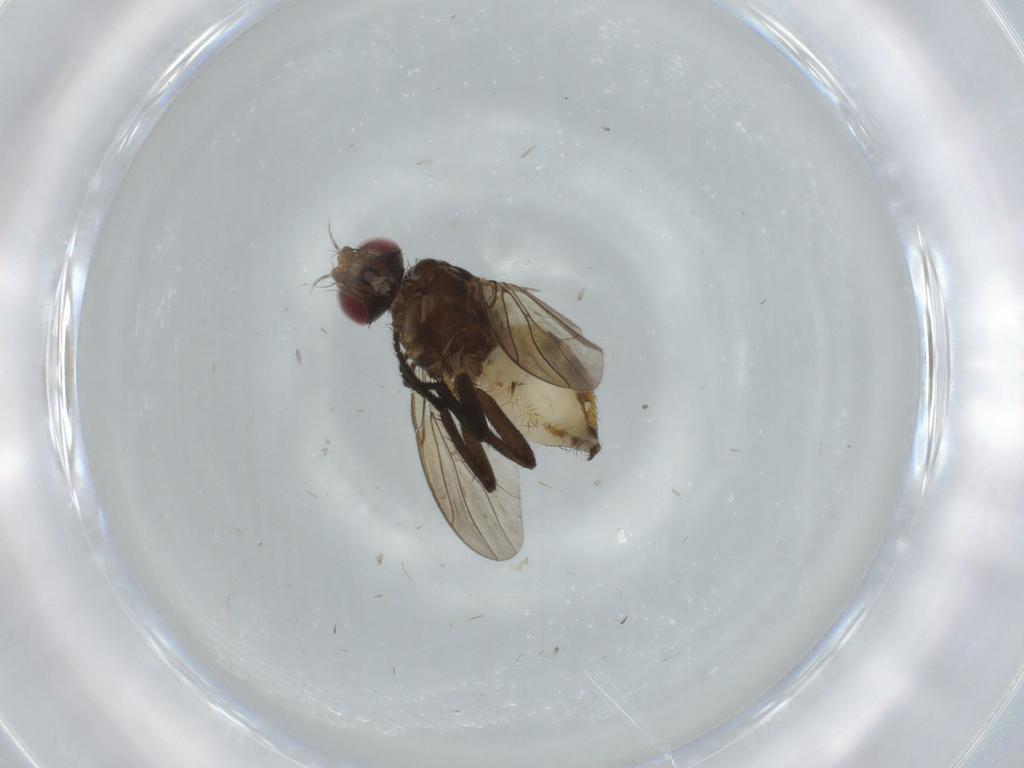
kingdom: Animalia
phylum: Arthropoda
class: Insecta
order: Diptera
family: Anthomyiidae
